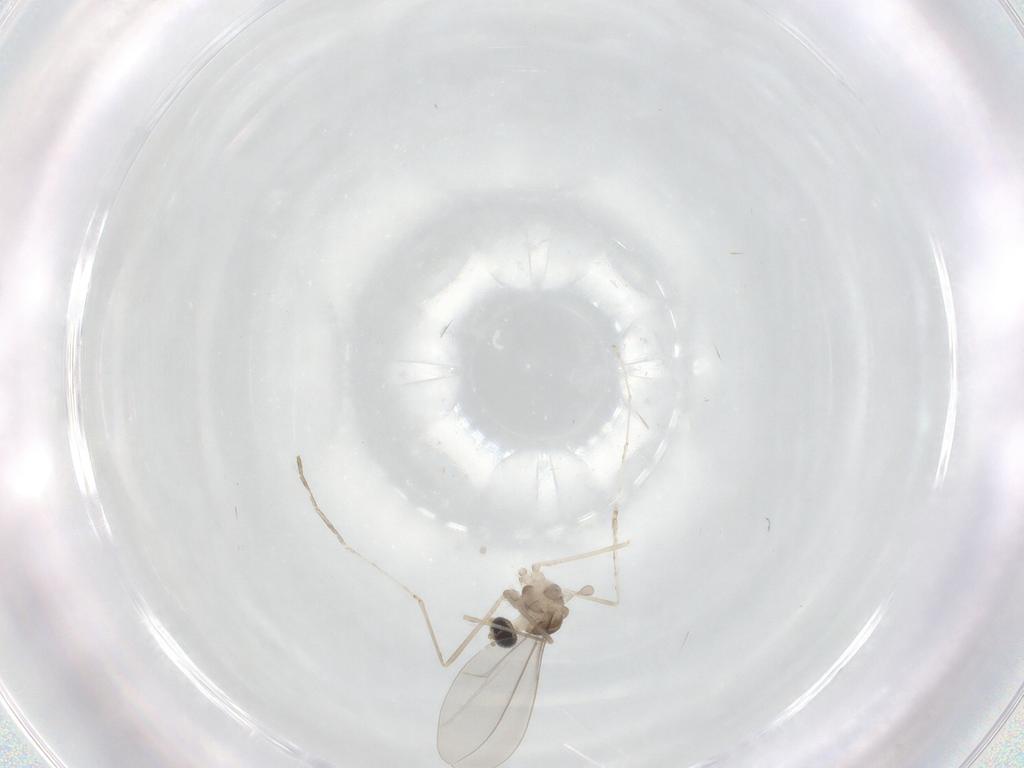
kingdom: Animalia
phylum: Arthropoda
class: Insecta
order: Diptera
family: Cecidomyiidae
